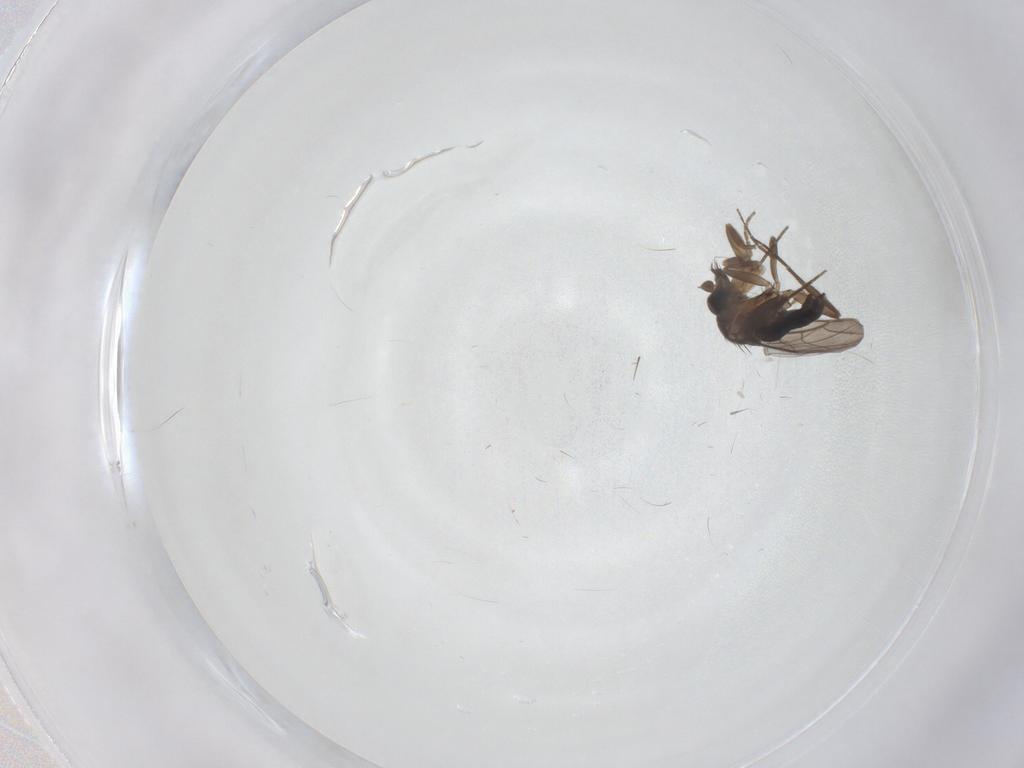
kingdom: Animalia
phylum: Arthropoda
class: Insecta
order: Diptera
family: Phoridae
